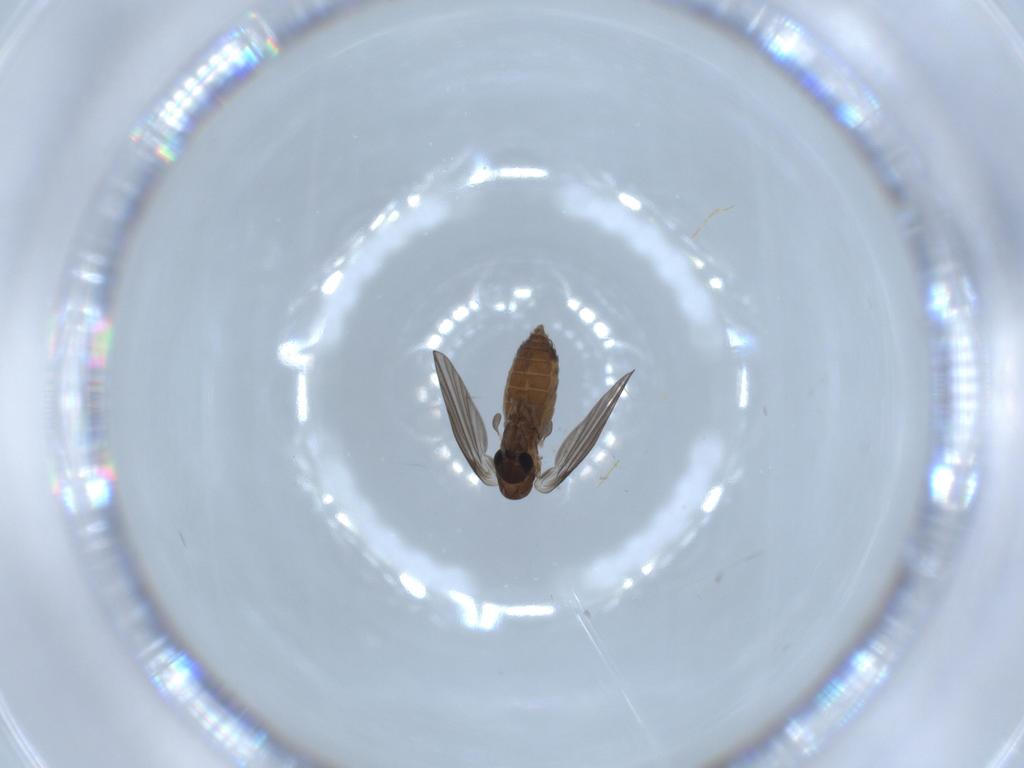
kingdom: Animalia
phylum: Arthropoda
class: Insecta
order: Diptera
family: Psychodidae
